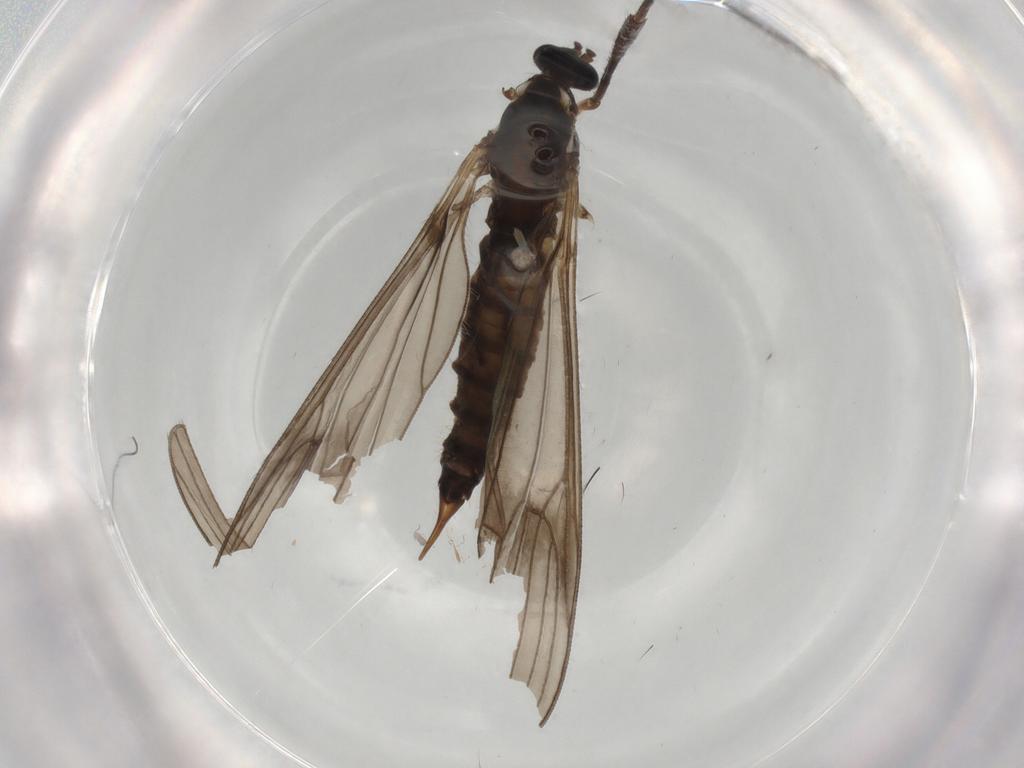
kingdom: Animalia
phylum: Arthropoda
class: Insecta
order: Diptera
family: Limoniidae
